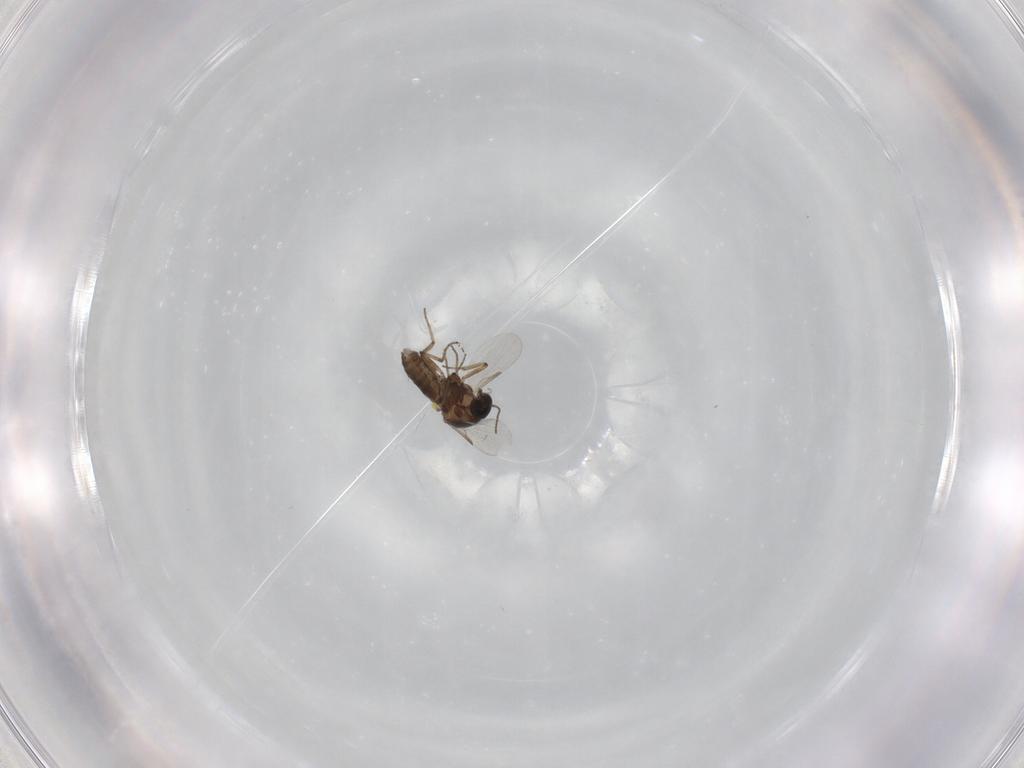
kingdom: Animalia
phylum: Arthropoda
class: Insecta
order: Diptera
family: Ceratopogonidae
